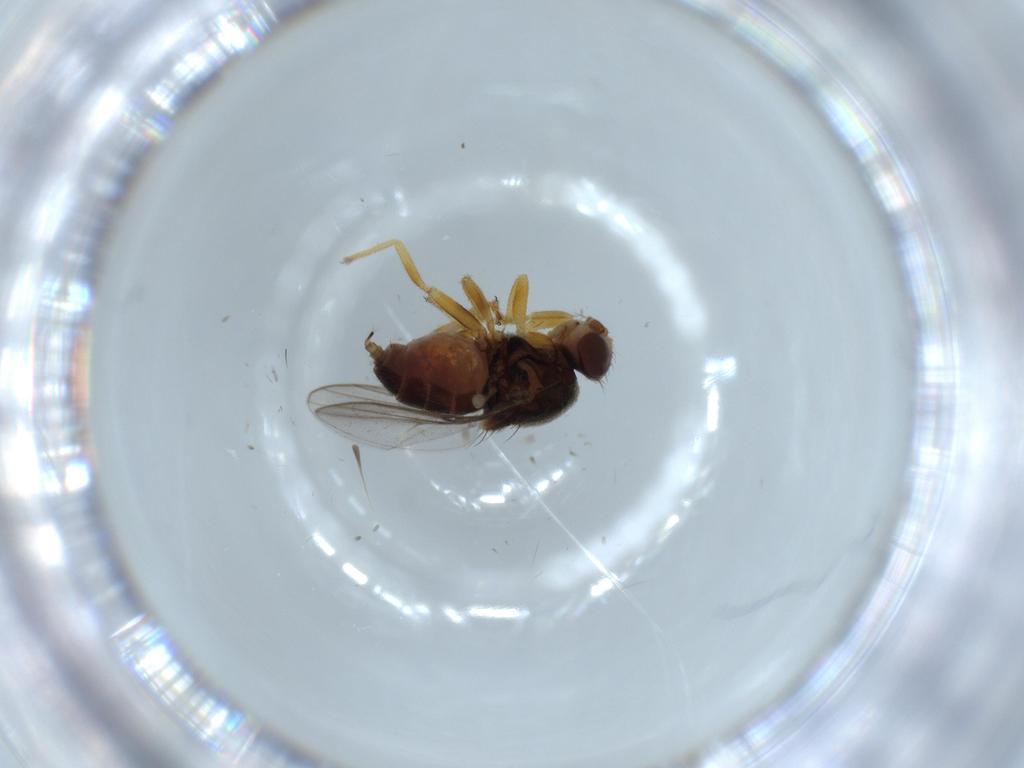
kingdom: Animalia
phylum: Arthropoda
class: Insecta
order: Diptera
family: Chloropidae
